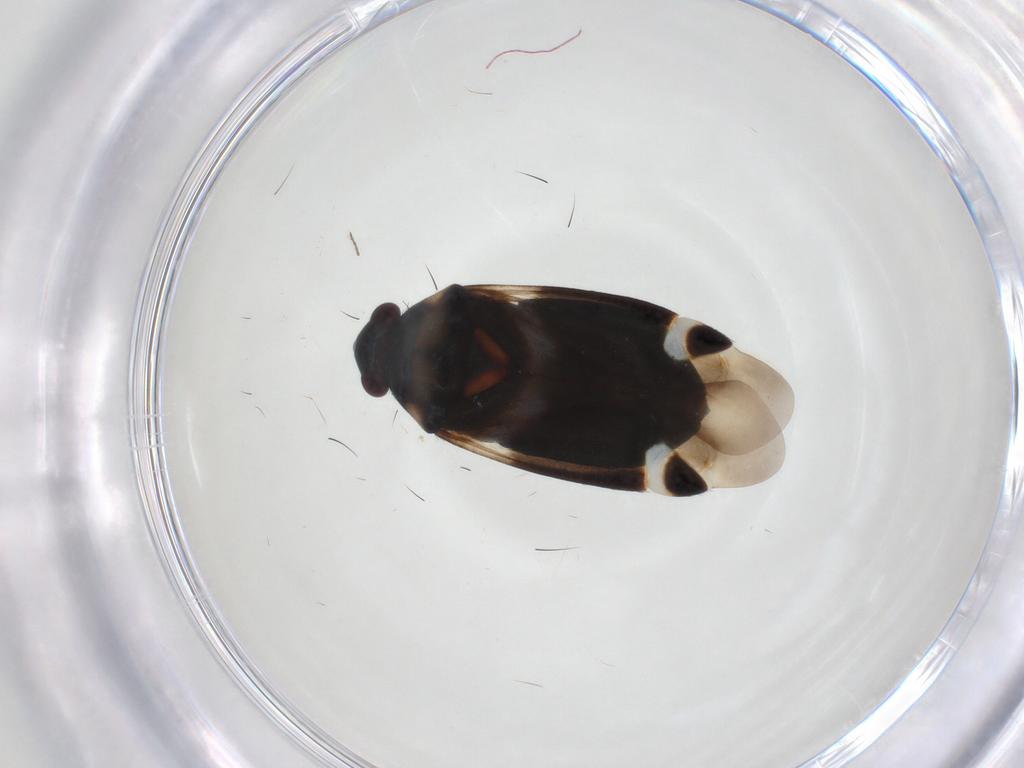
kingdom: Animalia
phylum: Arthropoda
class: Insecta
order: Hemiptera
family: Miridae
